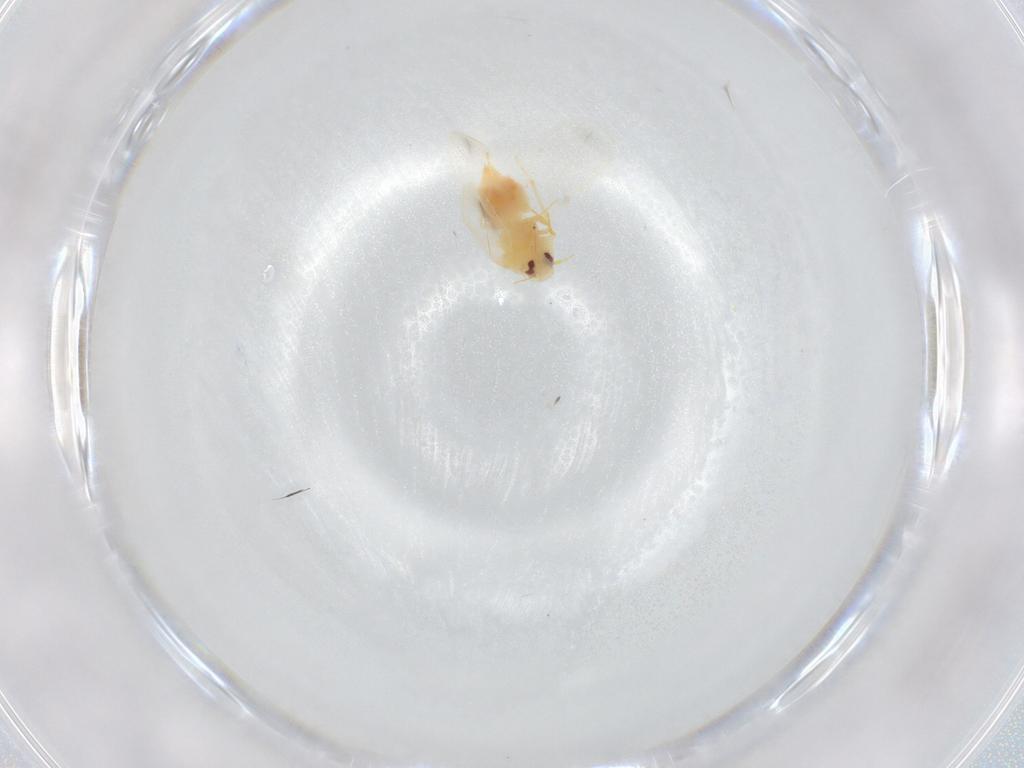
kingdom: Animalia
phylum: Arthropoda
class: Insecta
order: Hemiptera
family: Aleyrodidae
